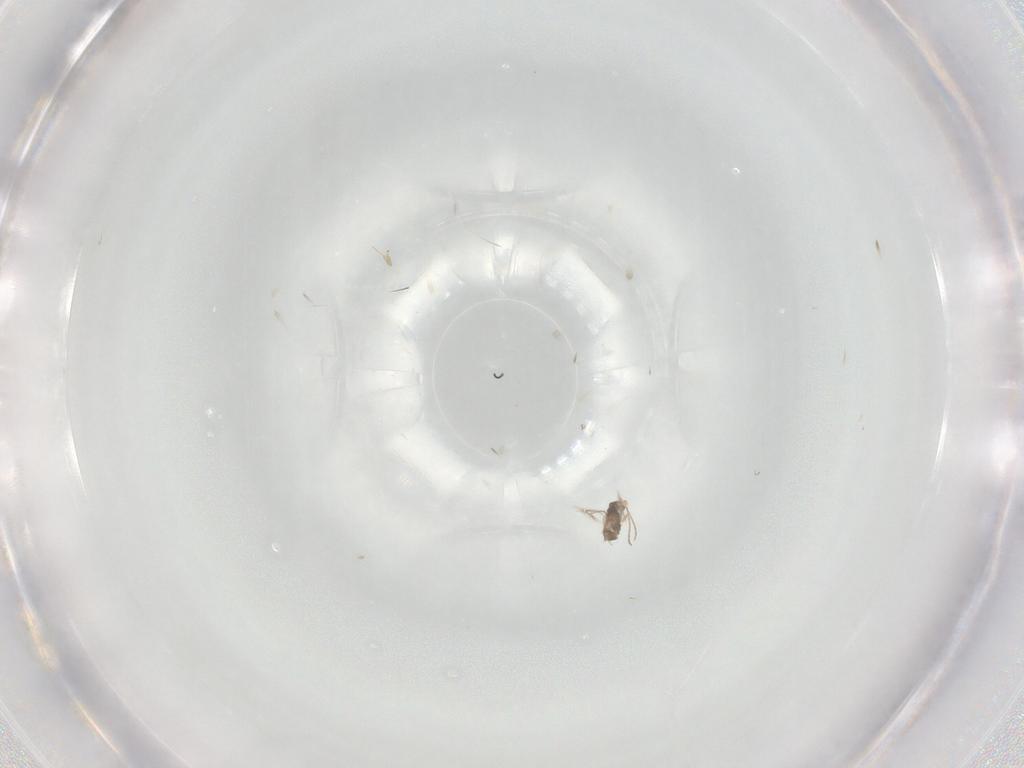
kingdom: Animalia
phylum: Arthropoda
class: Insecta
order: Hymenoptera
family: Mymaridae
